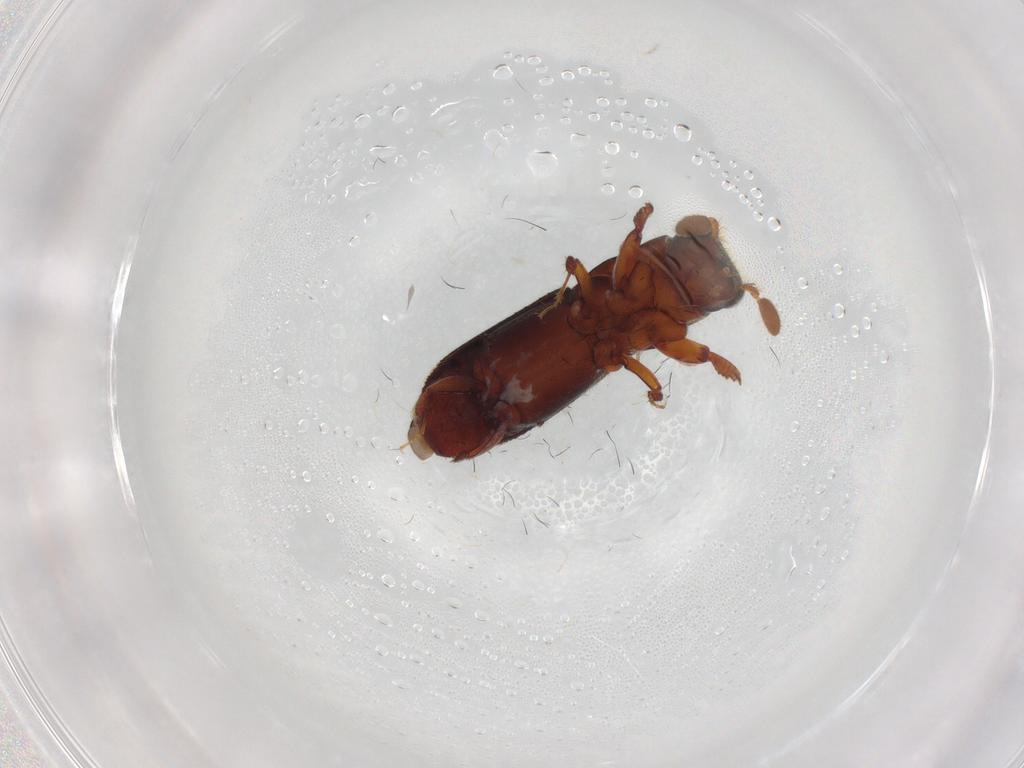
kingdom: Animalia
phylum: Arthropoda
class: Insecta
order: Coleoptera
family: Curculionidae
